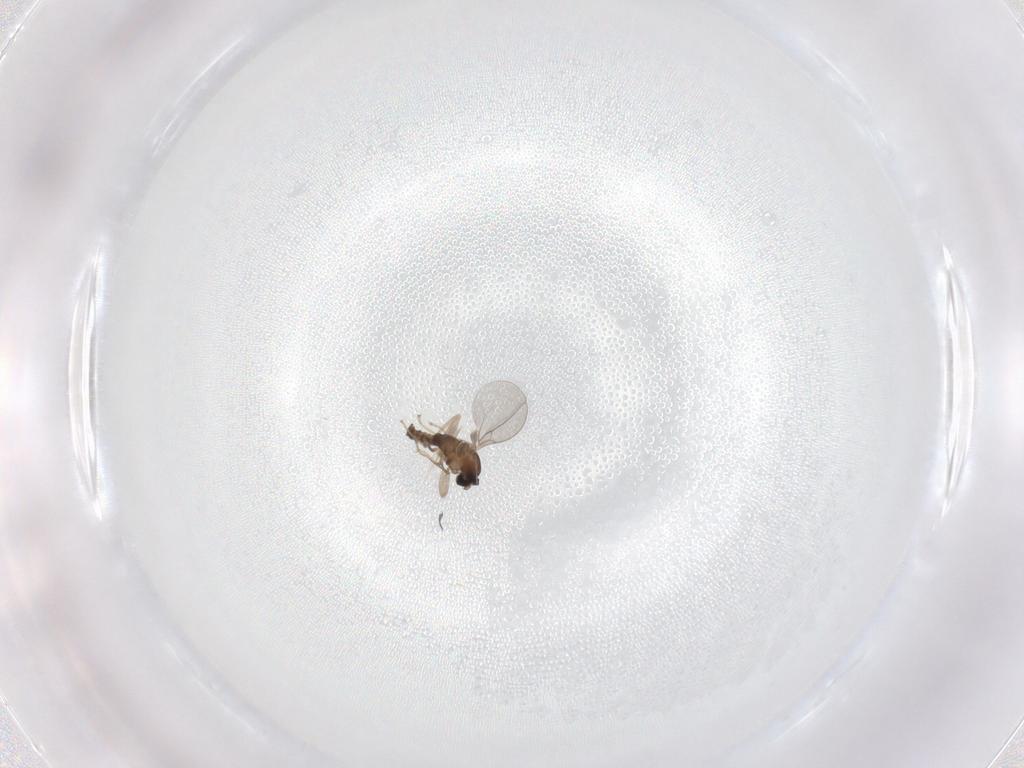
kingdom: Animalia
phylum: Arthropoda
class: Insecta
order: Diptera
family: Cecidomyiidae
